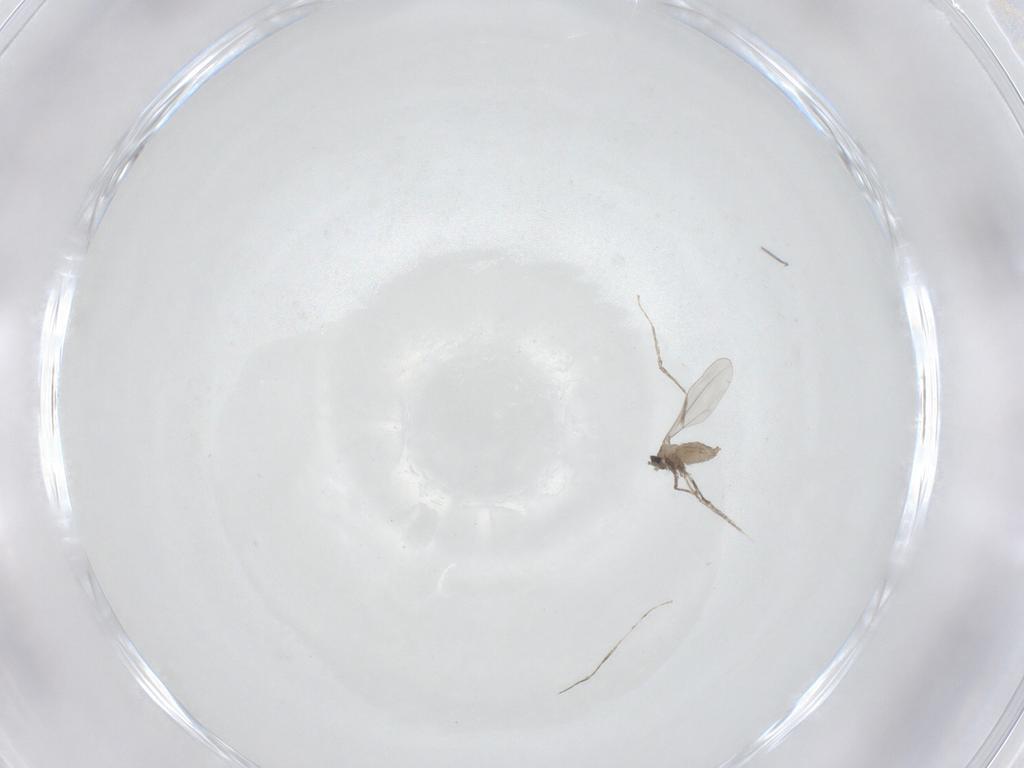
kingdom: Animalia
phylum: Arthropoda
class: Insecta
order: Diptera
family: Cecidomyiidae
